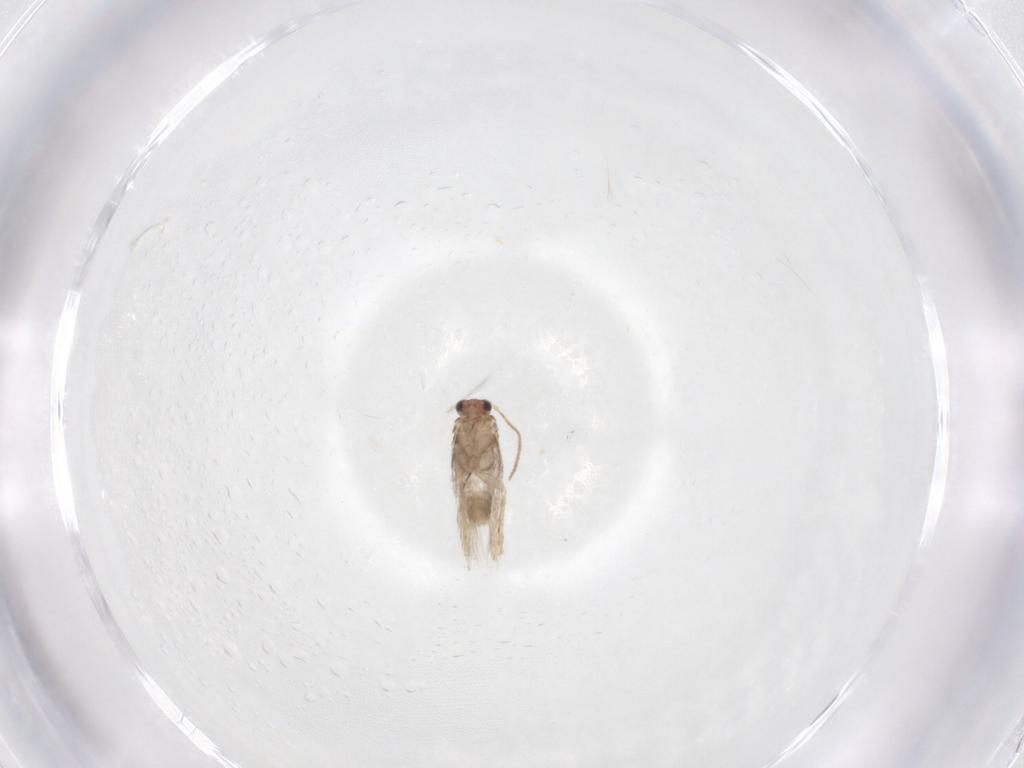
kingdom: Animalia
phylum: Arthropoda
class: Insecta
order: Lepidoptera
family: Nepticulidae
